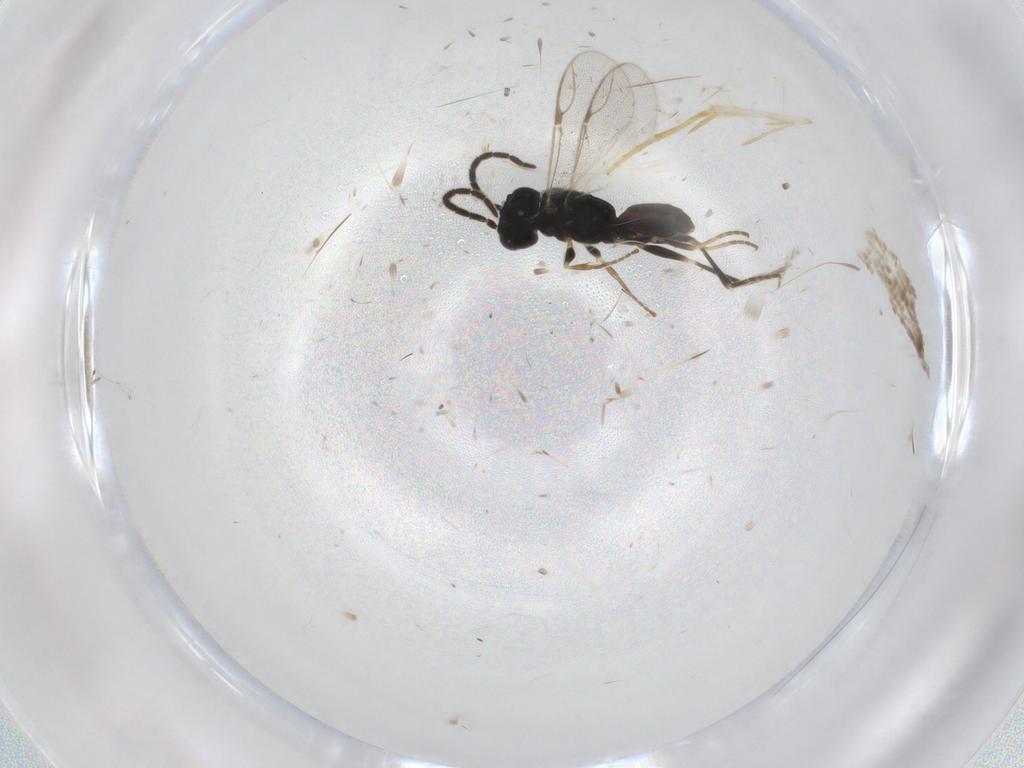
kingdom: Animalia
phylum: Arthropoda
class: Insecta
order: Hymenoptera
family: Dryinidae
